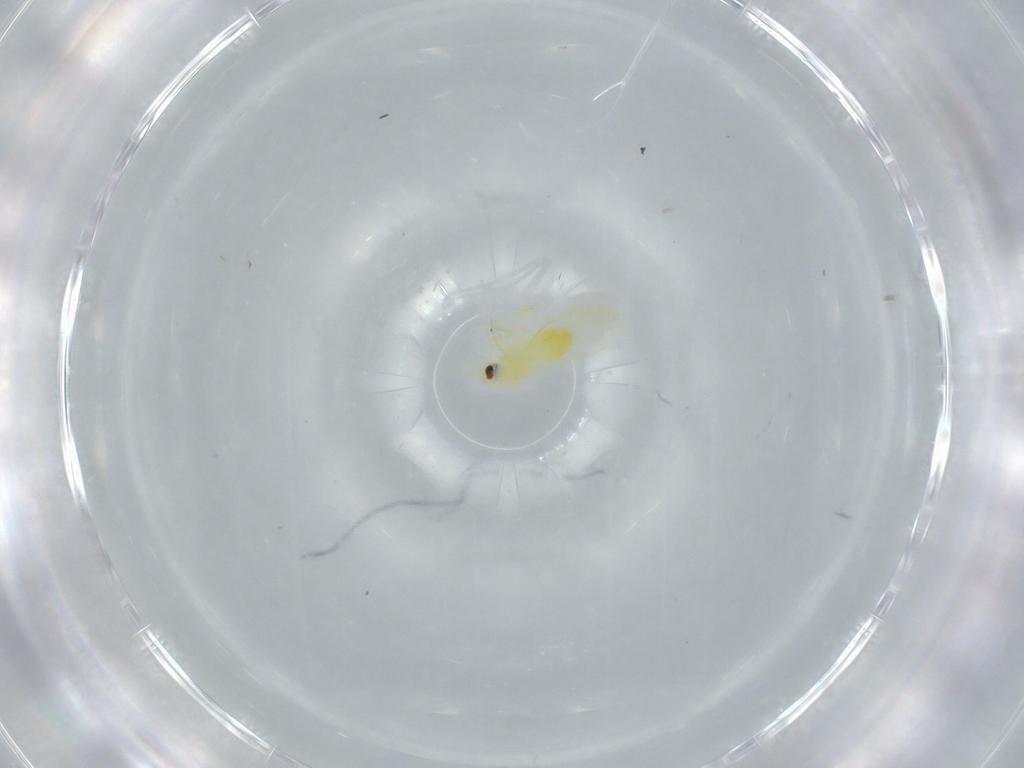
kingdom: Animalia
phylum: Arthropoda
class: Insecta
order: Hemiptera
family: Aleyrodidae
